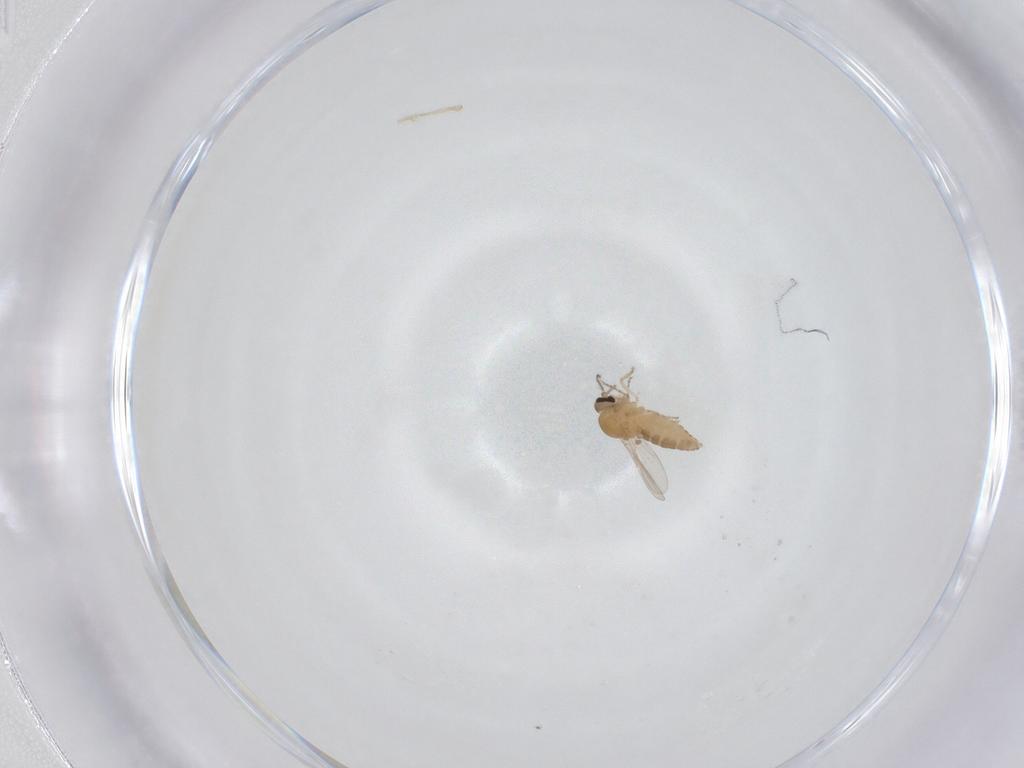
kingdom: Animalia
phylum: Arthropoda
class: Insecta
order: Diptera
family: Ceratopogonidae
